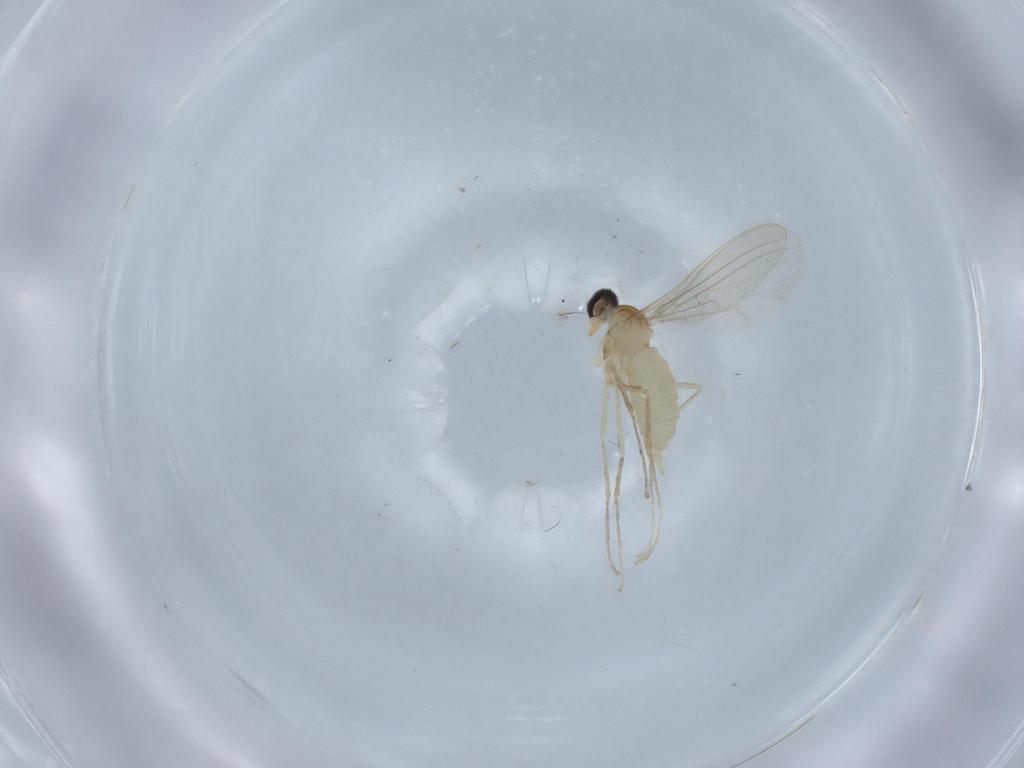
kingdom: Animalia
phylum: Arthropoda
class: Insecta
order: Diptera
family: Cecidomyiidae
